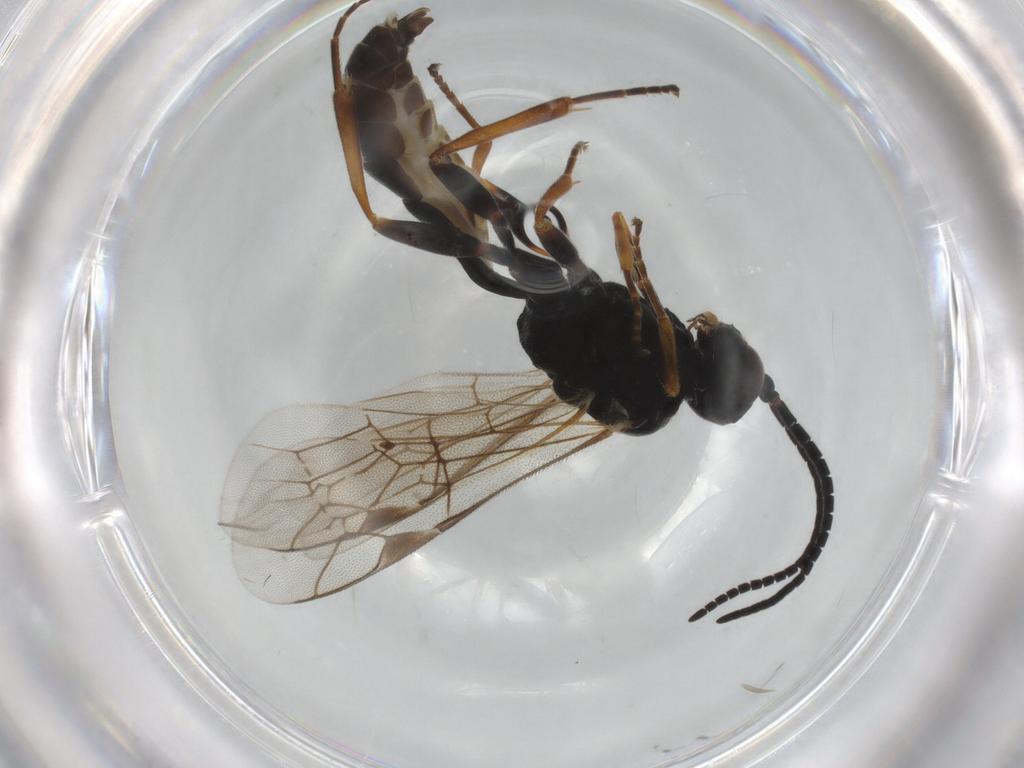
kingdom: Animalia
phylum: Arthropoda
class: Insecta
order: Hymenoptera
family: Ichneumonidae
